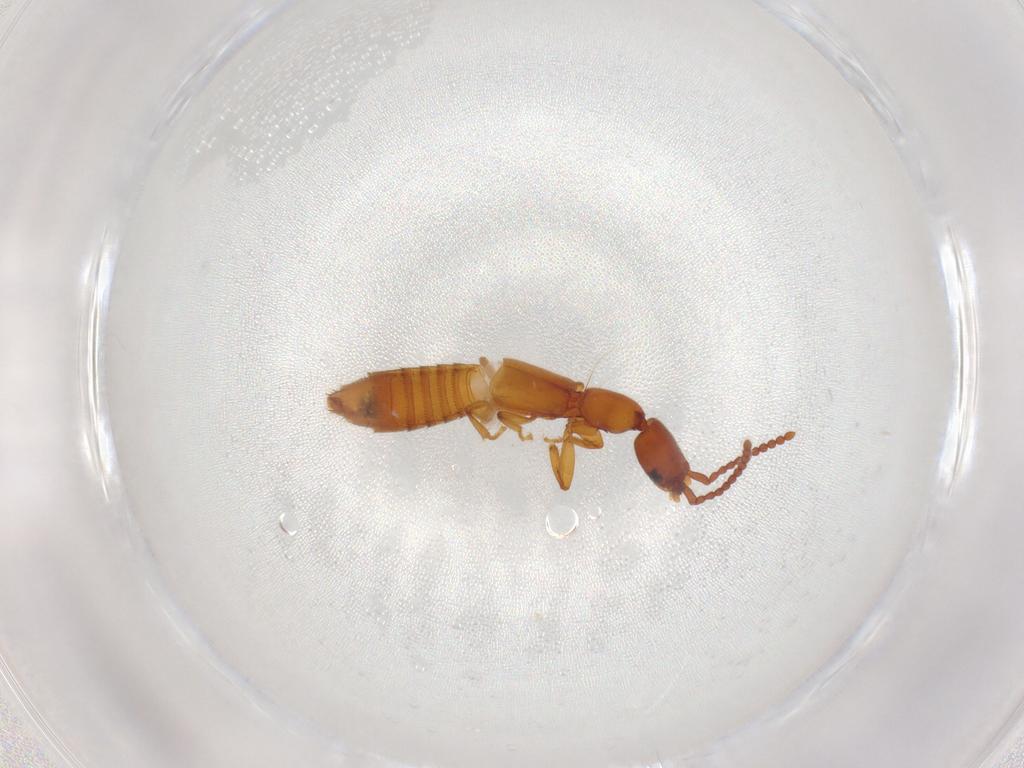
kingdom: Animalia
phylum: Arthropoda
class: Insecta
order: Coleoptera
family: Staphylinidae
